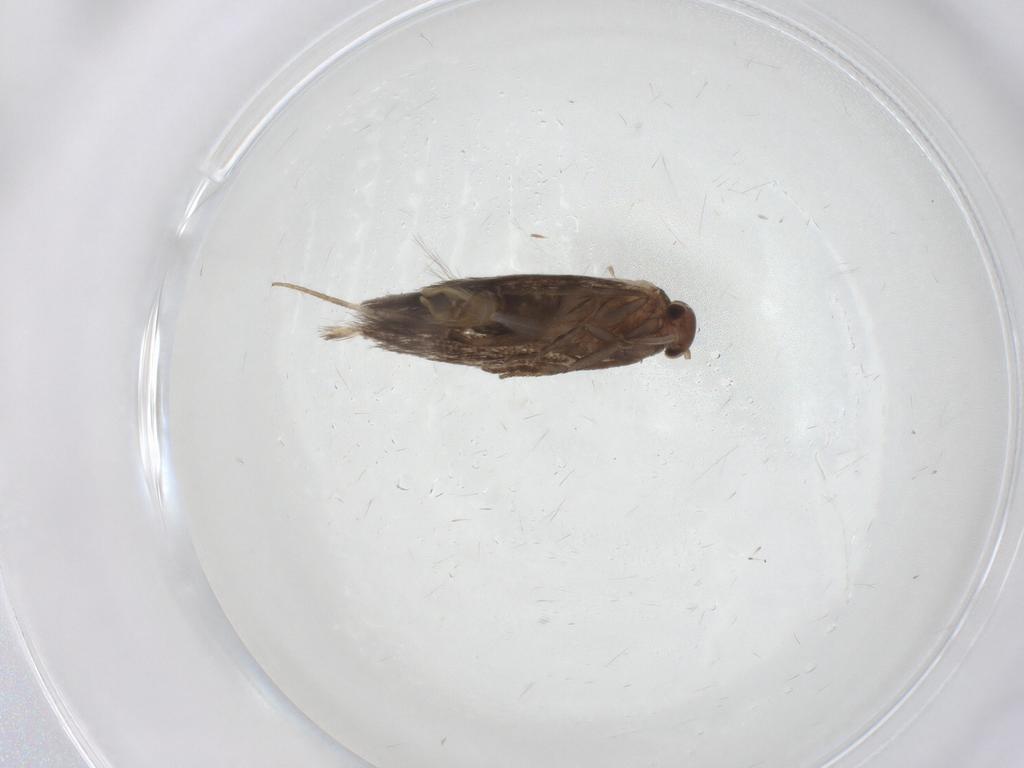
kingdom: Animalia
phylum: Arthropoda
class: Insecta
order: Lepidoptera
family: Elachistidae
